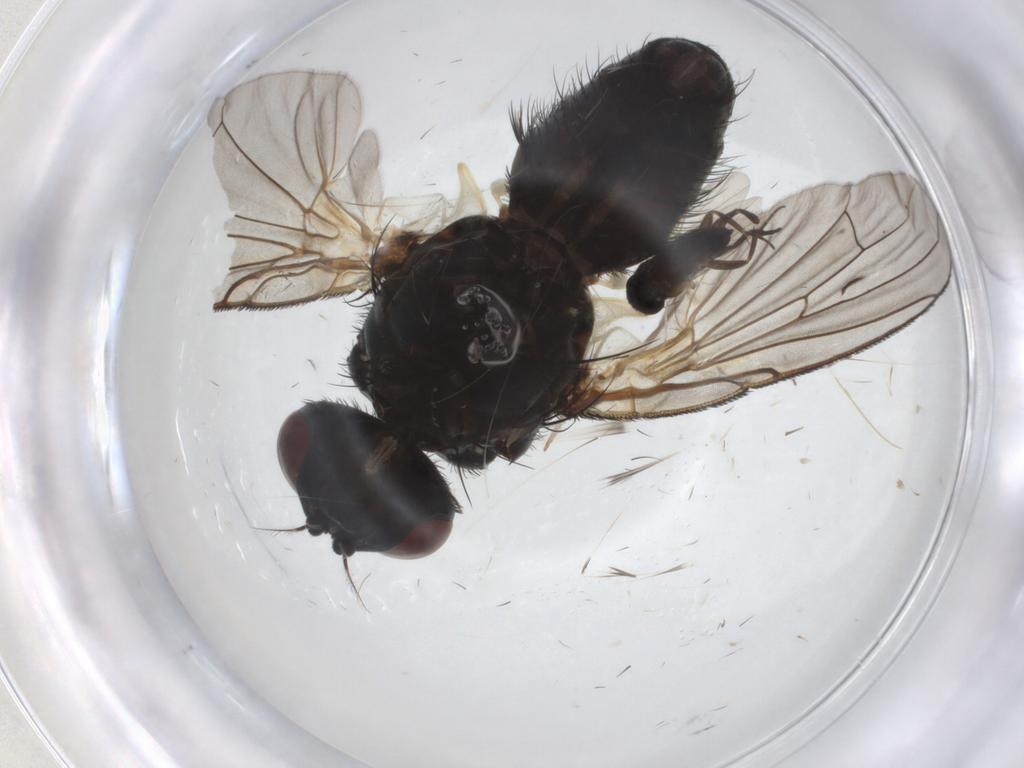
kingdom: Animalia
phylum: Arthropoda
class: Insecta
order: Diptera
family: Muscidae
